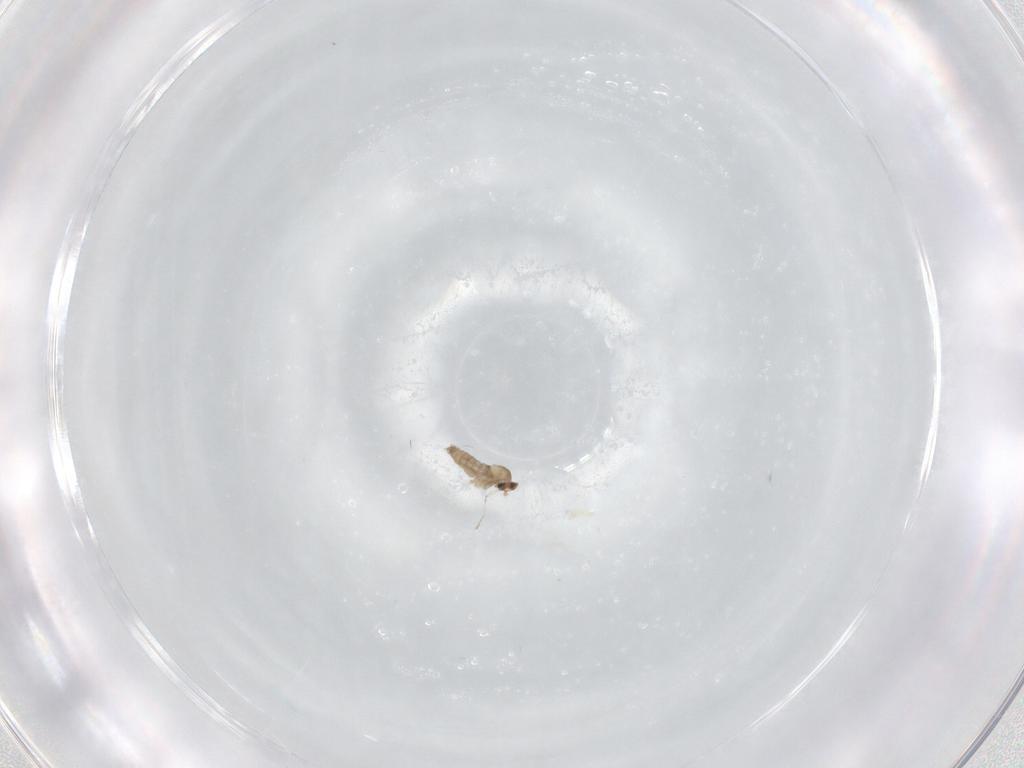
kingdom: Animalia
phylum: Arthropoda
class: Insecta
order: Diptera
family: Cecidomyiidae
